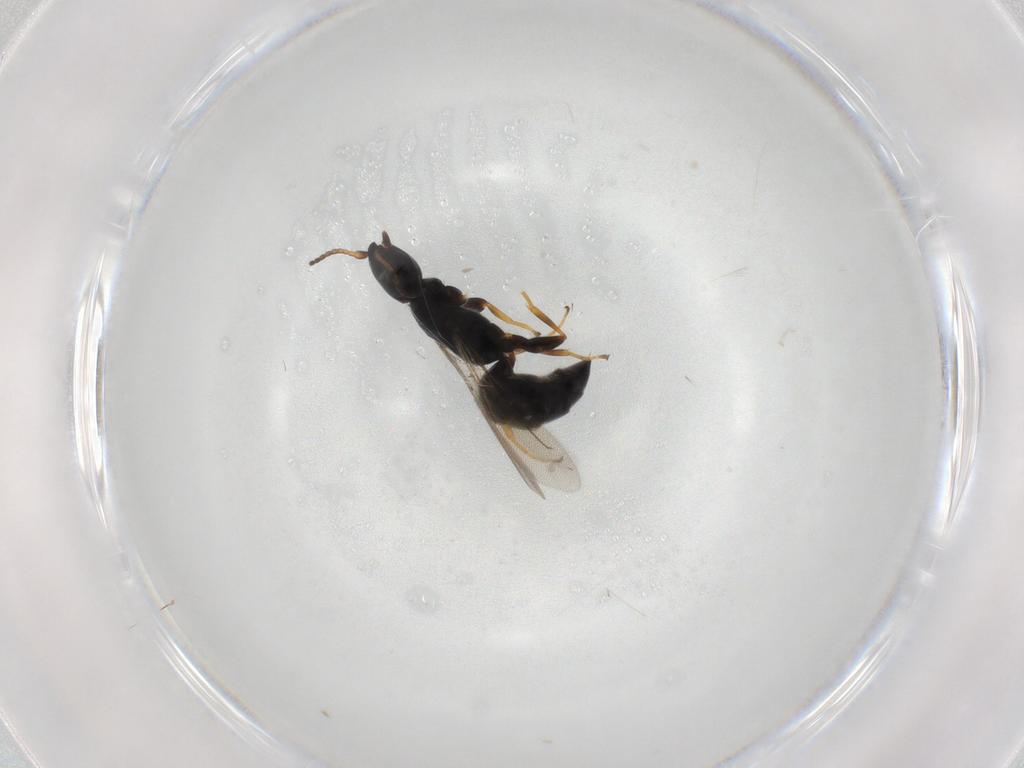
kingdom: Animalia
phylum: Arthropoda
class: Insecta
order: Hymenoptera
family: Bethylidae
